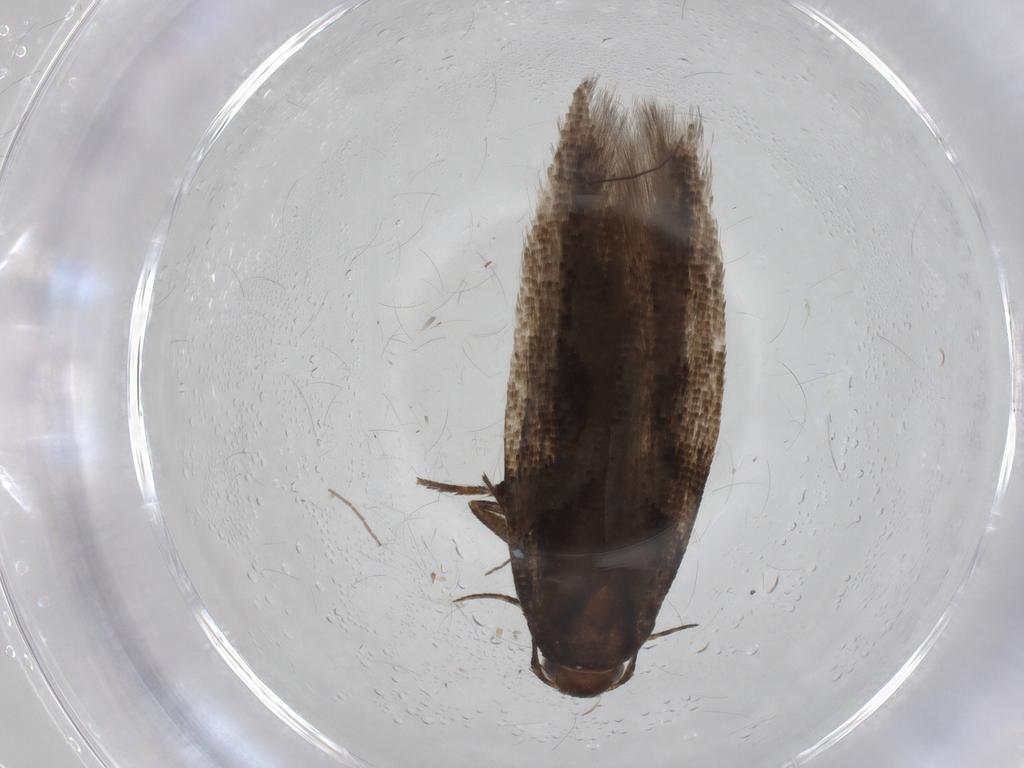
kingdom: Animalia
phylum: Arthropoda
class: Insecta
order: Lepidoptera
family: Gelechiidae
